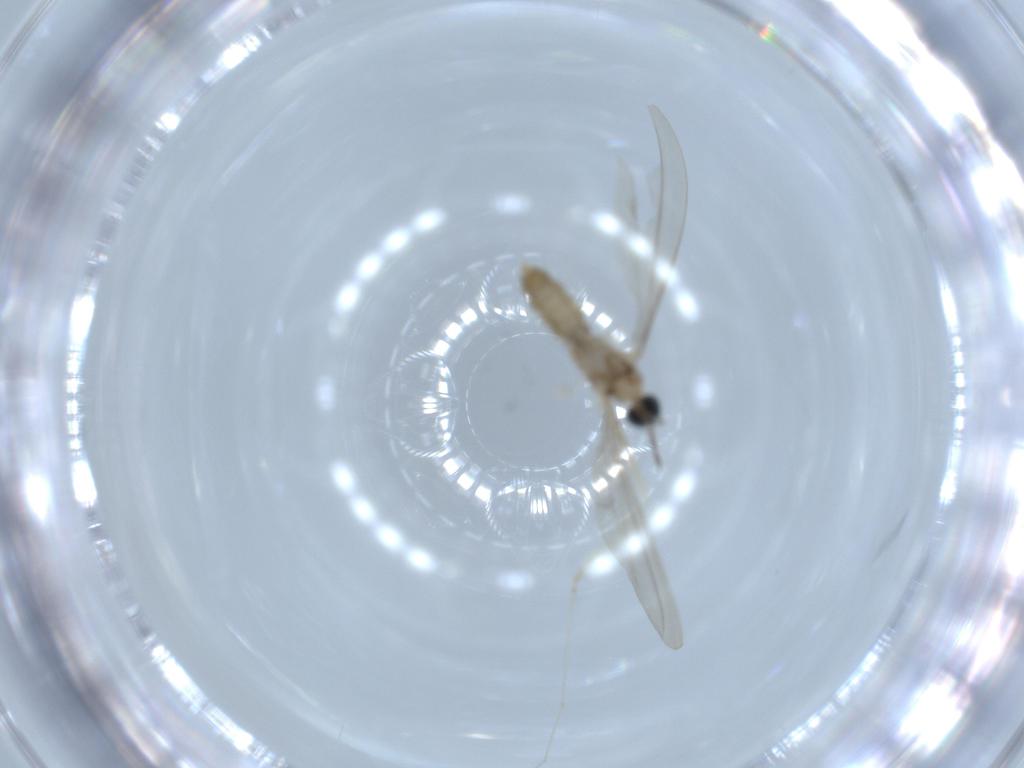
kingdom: Animalia
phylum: Arthropoda
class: Insecta
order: Diptera
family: Cecidomyiidae
